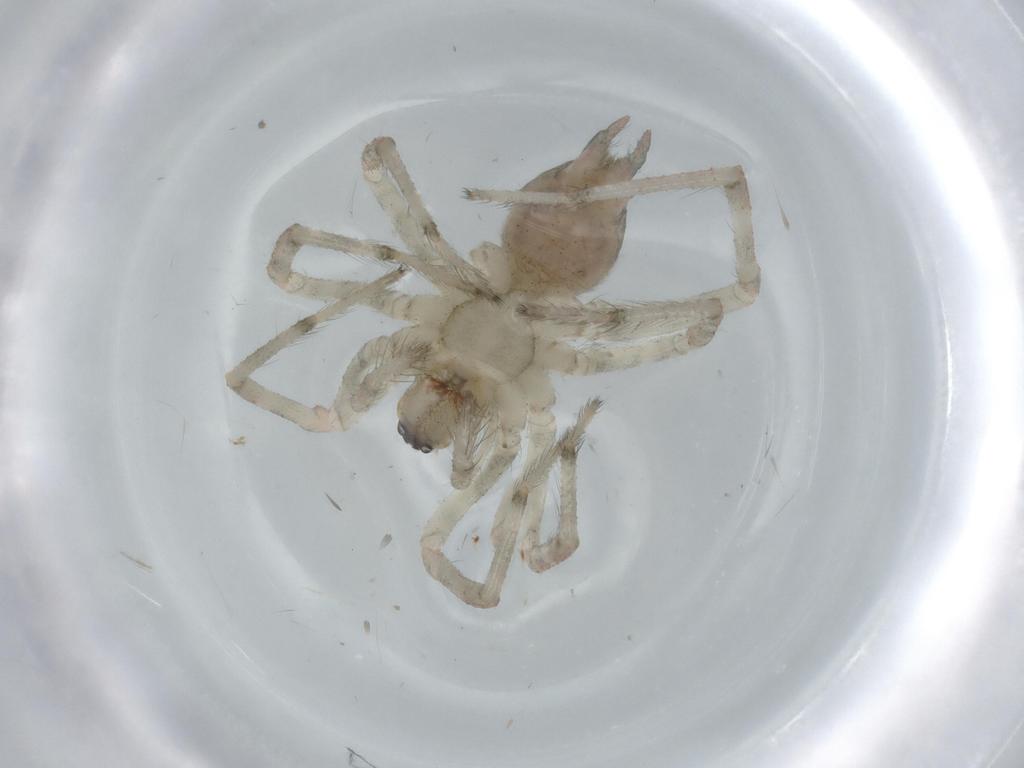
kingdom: Animalia
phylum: Arthropoda
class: Arachnida
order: Araneae
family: Agelenidae
